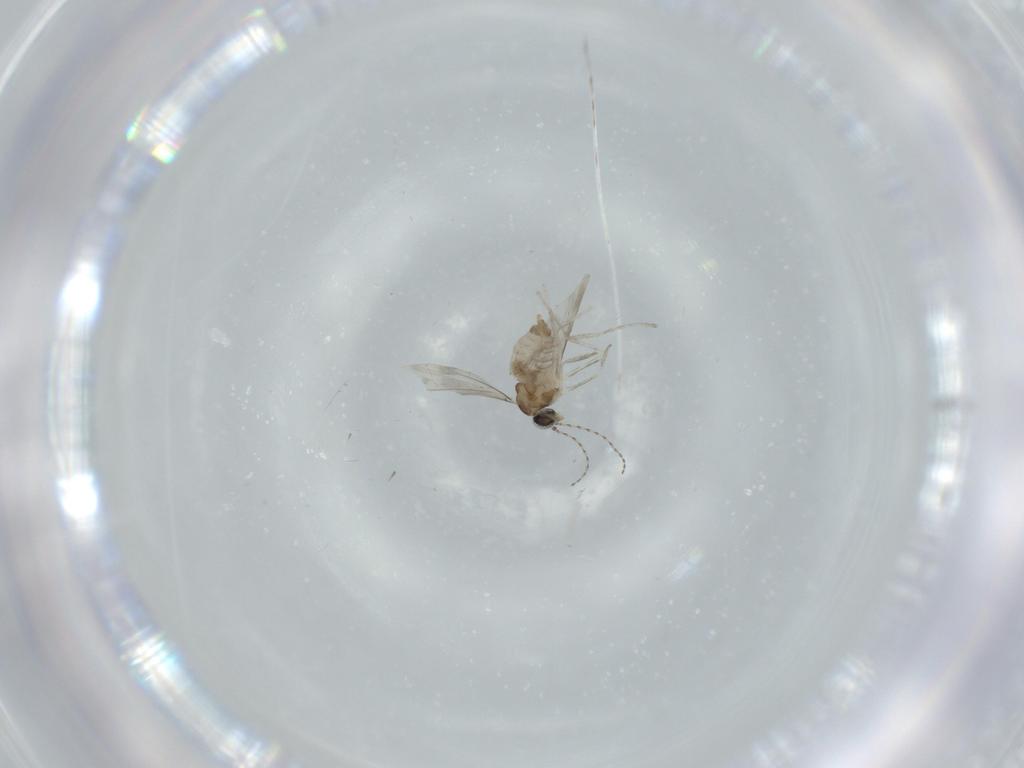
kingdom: Animalia
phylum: Arthropoda
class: Insecta
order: Diptera
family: Cecidomyiidae
